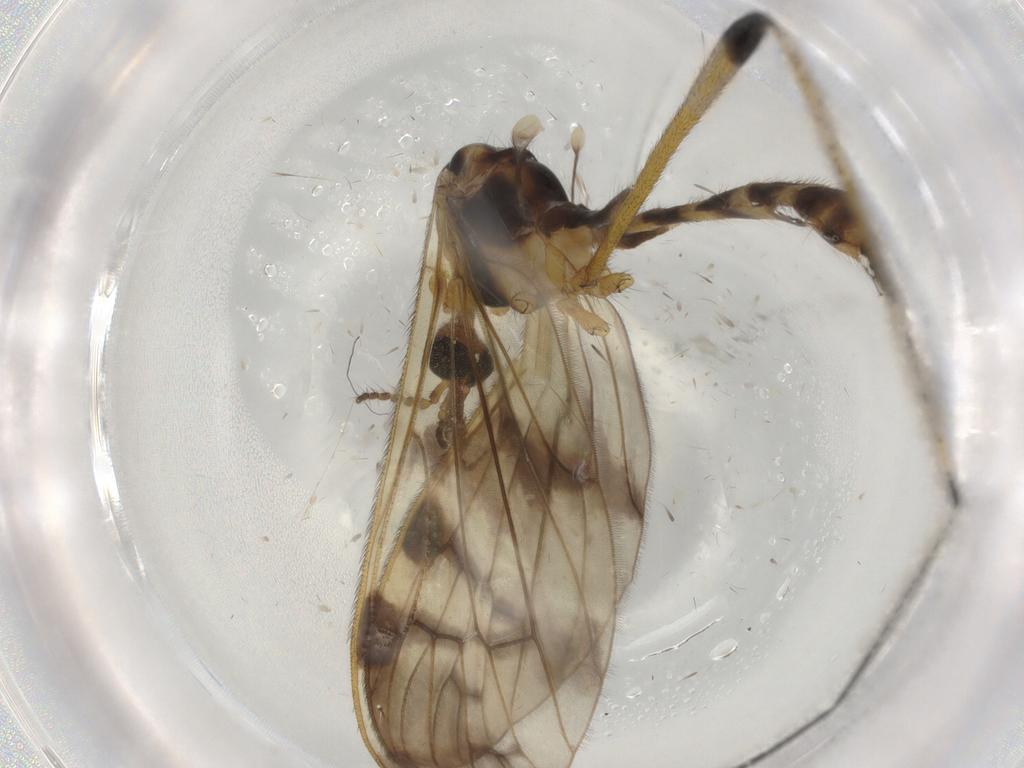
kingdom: Animalia
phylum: Arthropoda
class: Insecta
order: Diptera
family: Limoniidae
